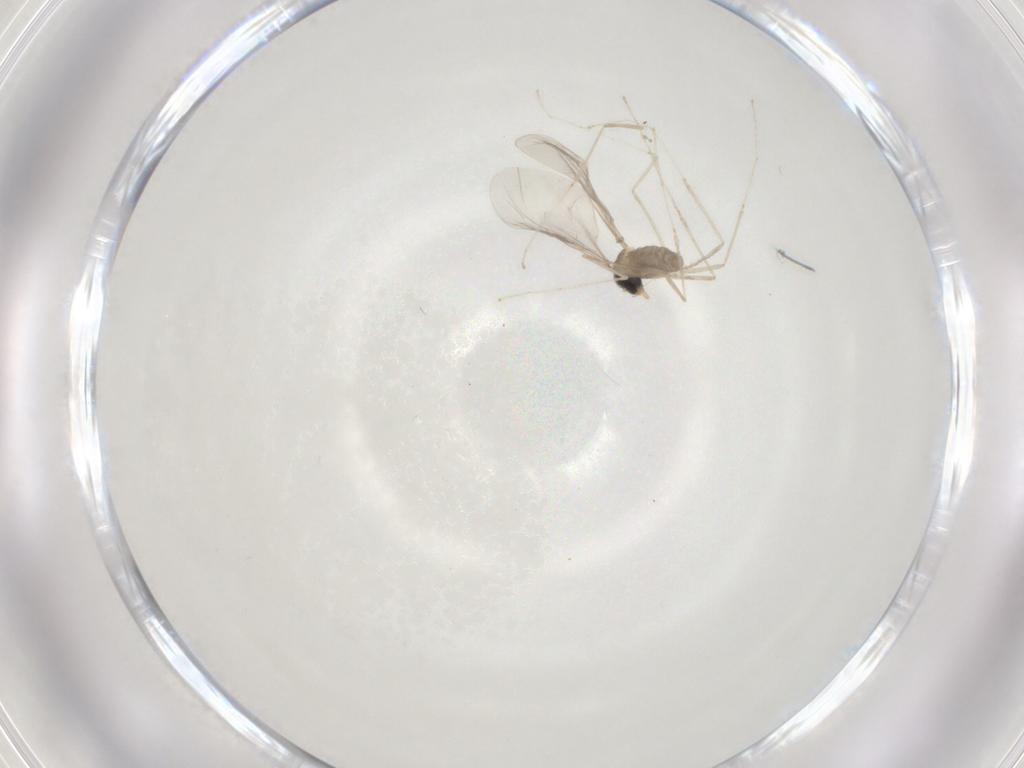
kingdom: Animalia
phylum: Arthropoda
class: Insecta
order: Diptera
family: Cecidomyiidae
